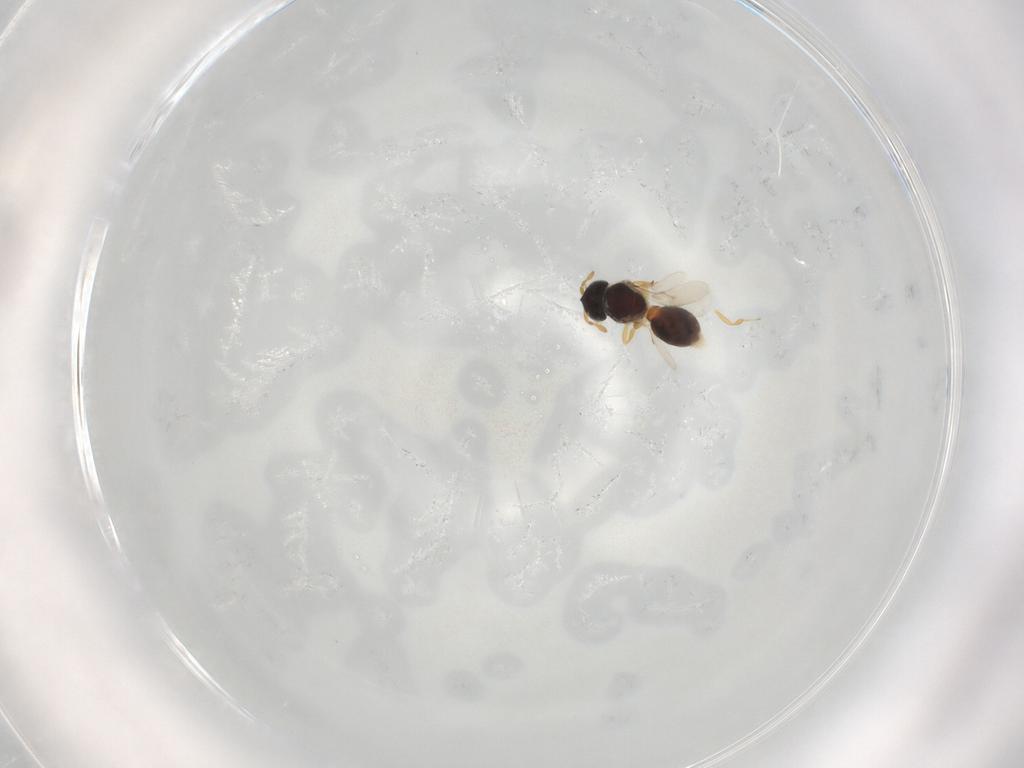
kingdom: Animalia
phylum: Arthropoda
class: Insecta
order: Hymenoptera
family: Scelionidae
